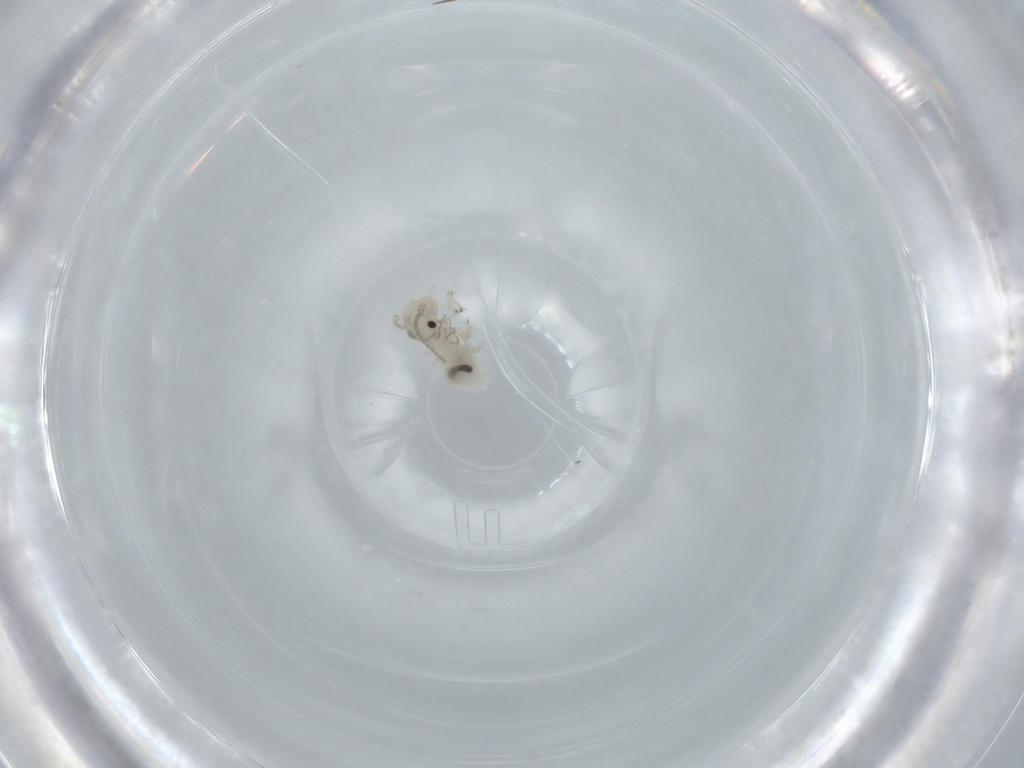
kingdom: Animalia
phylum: Arthropoda
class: Insecta
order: Psocodea
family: Amphipsocidae
